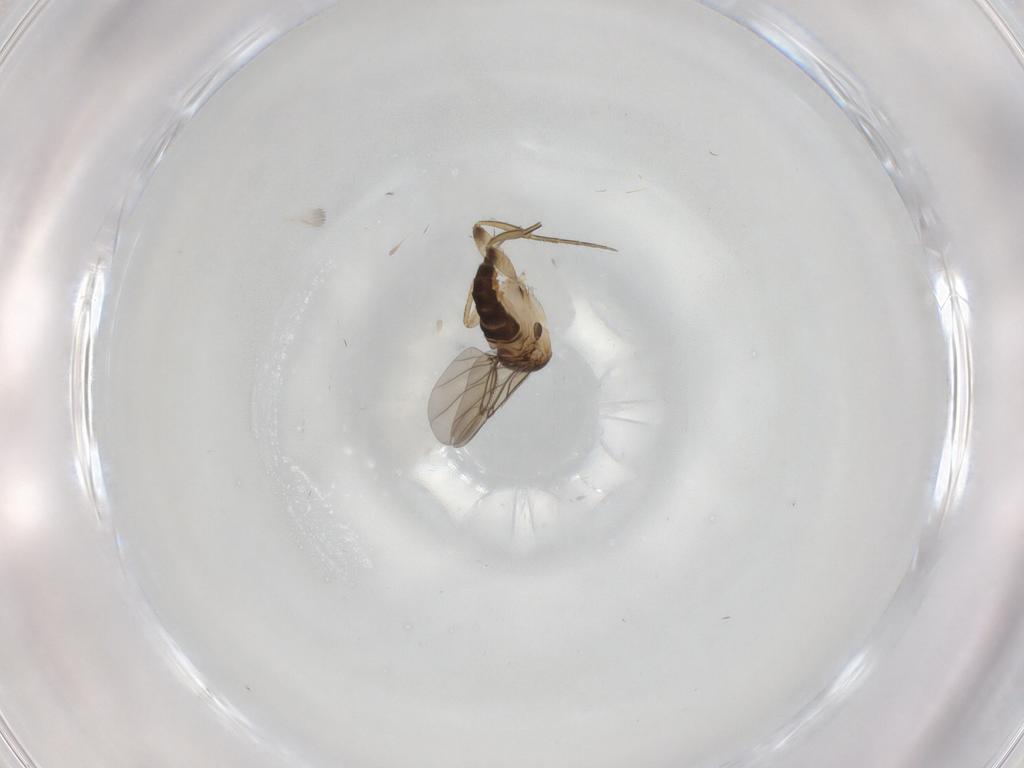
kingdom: Animalia
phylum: Arthropoda
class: Insecta
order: Diptera
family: Phoridae
